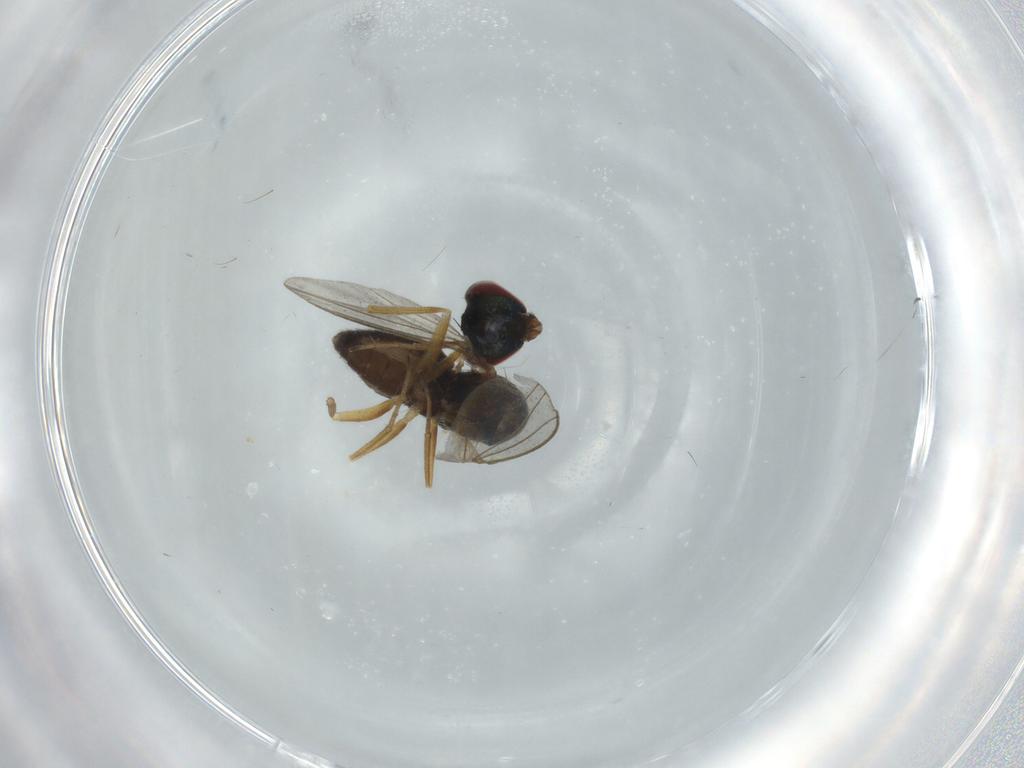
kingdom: Animalia
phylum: Arthropoda
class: Insecta
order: Diptera
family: Dolichopodidae
